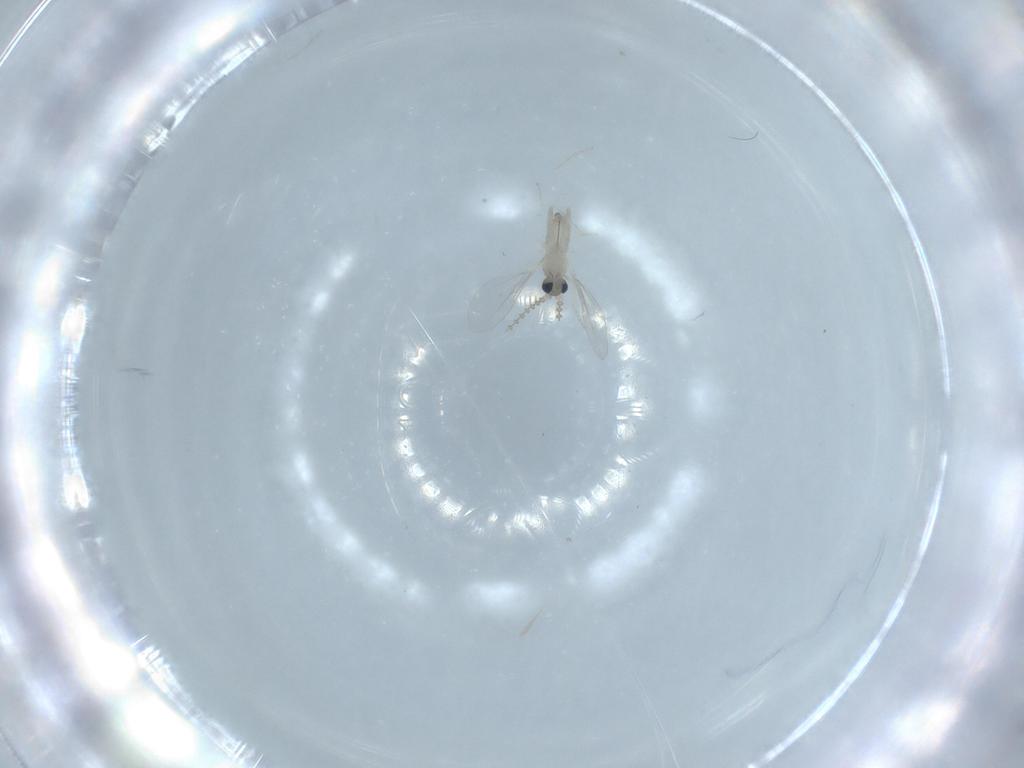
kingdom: Animalia
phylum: Arthropoda
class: Insecta
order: Diptera
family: Cecidomyiidae
